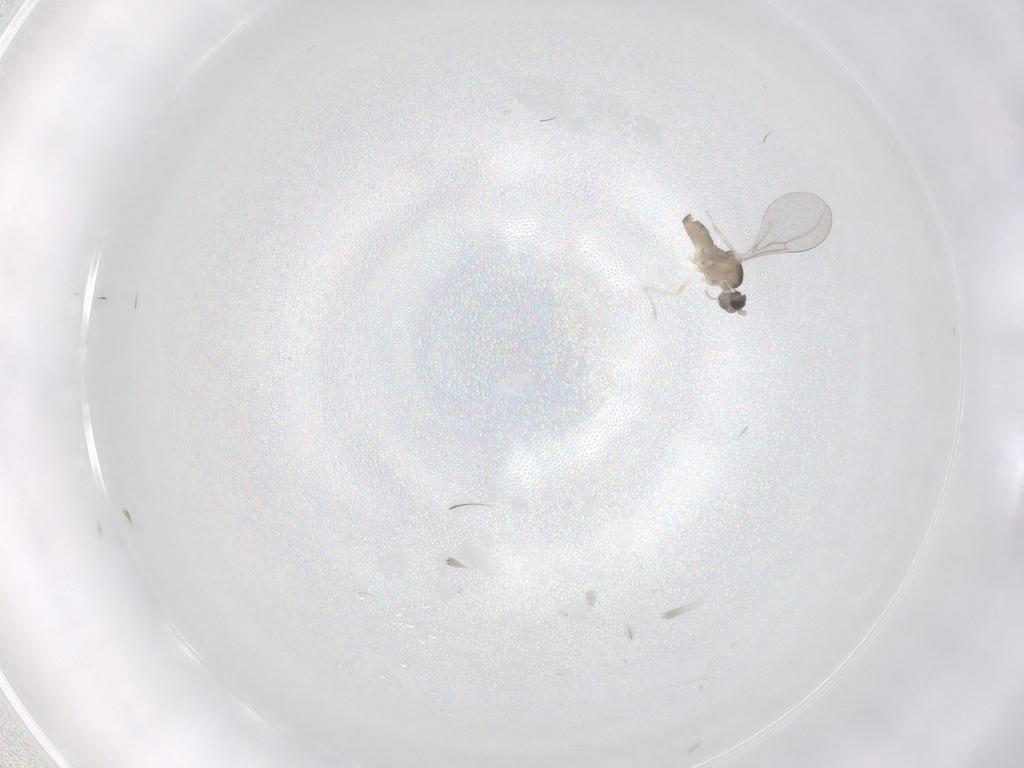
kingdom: Animalia
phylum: Arthropoda
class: Insecta
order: Diptera
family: Cecidomyiidae
